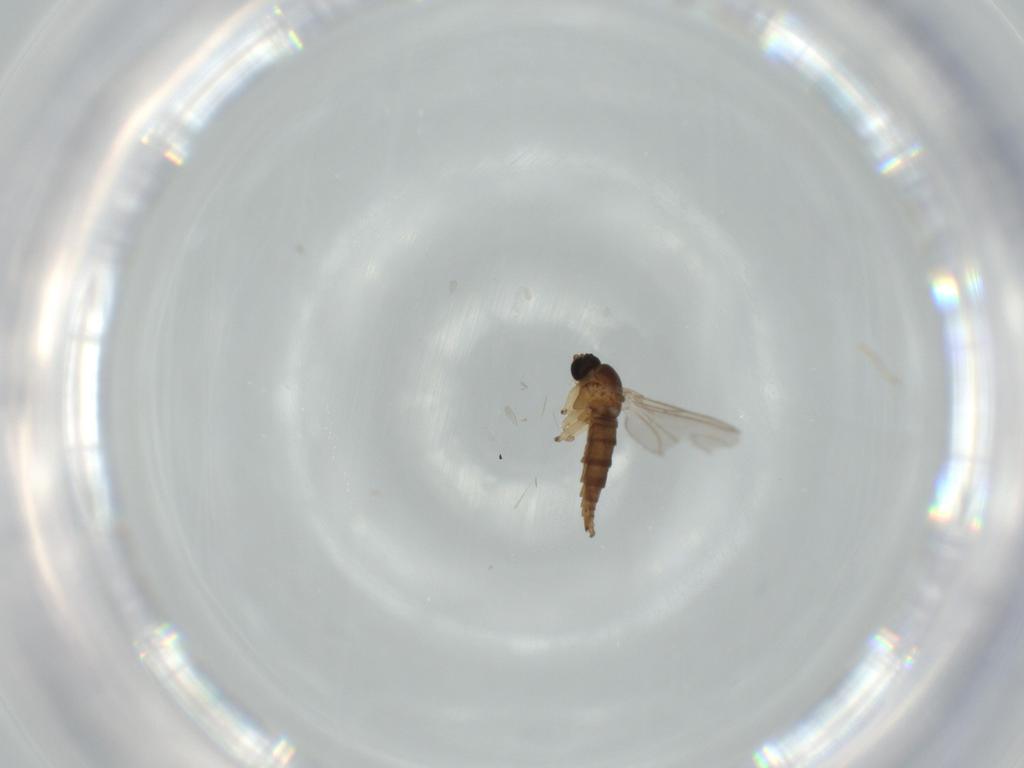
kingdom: Animalia
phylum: Arthropoda
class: Insecta
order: Diptera
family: Sciaridae
